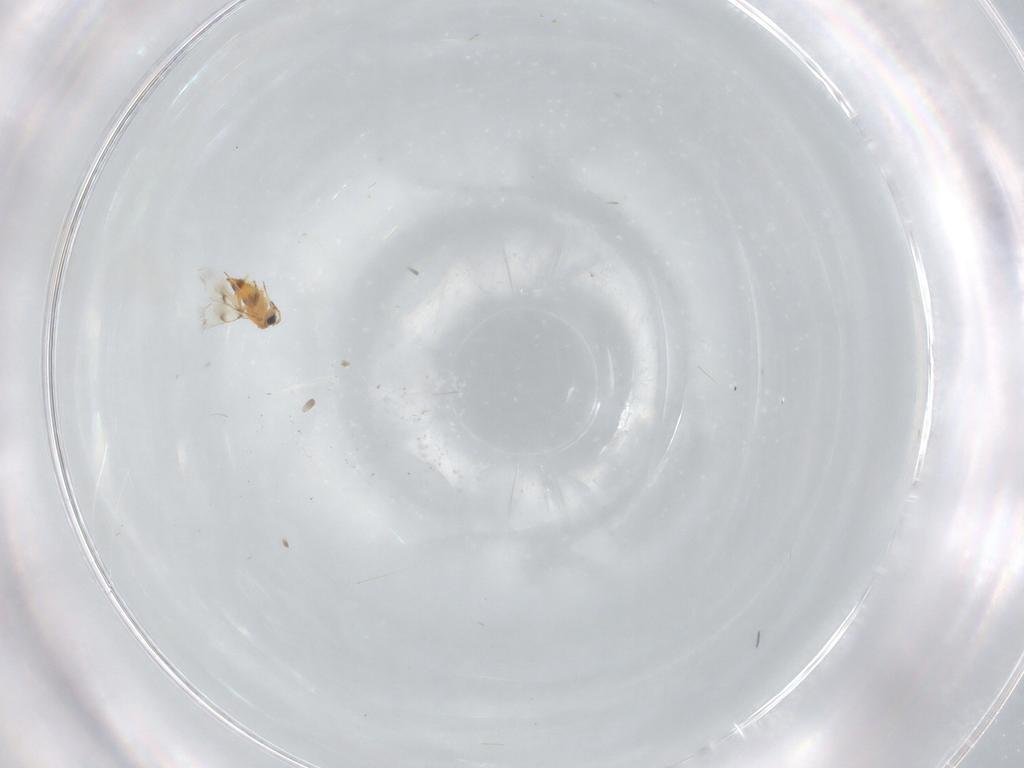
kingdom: Animalia
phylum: Arthropoda
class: Insecta
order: Hymenoptera
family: Aphelinidae
